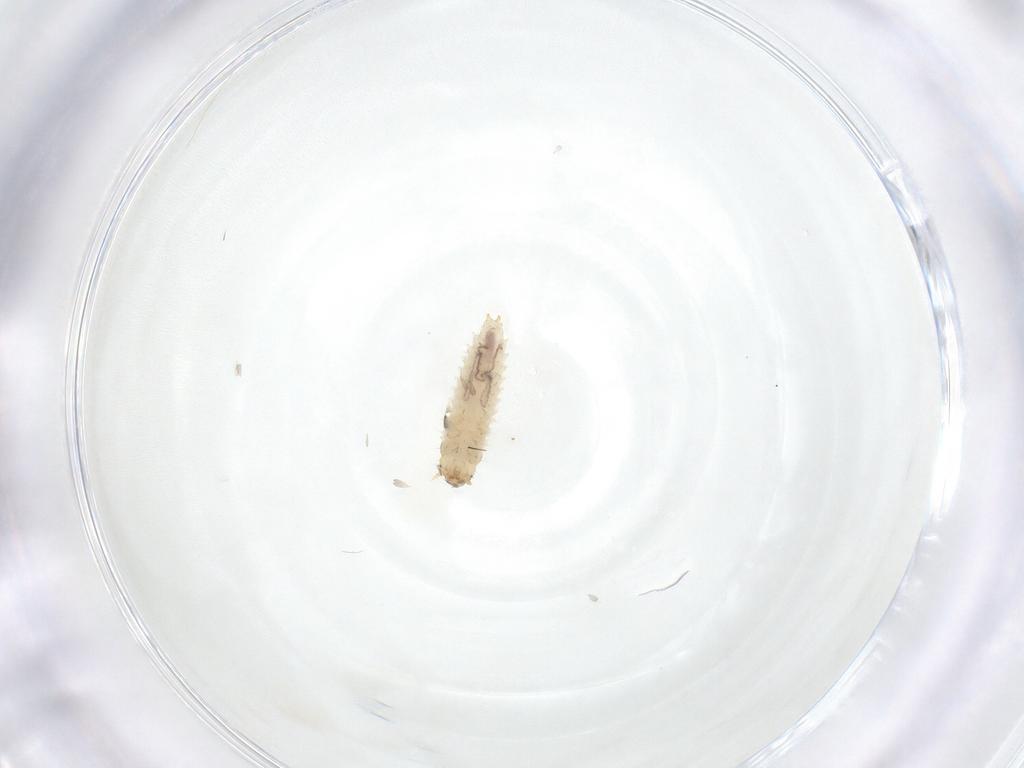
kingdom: Animalia
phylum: Arthropoda
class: Insecta
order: Coleoptera
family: Nitidulidae
